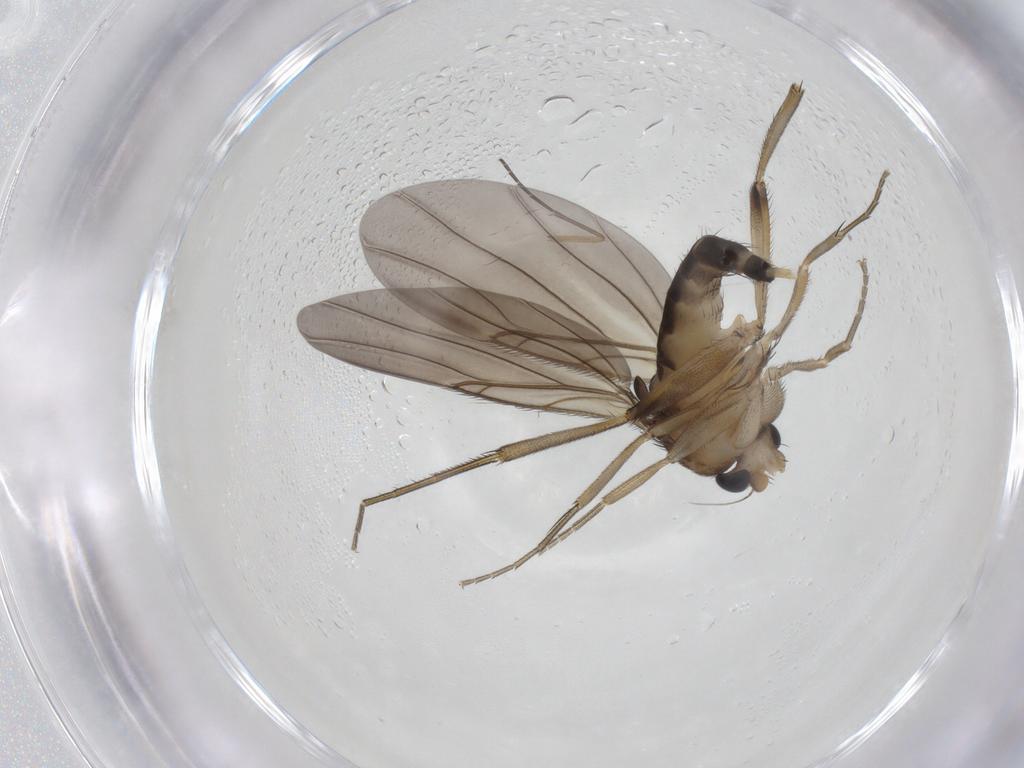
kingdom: Animalia
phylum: Arthropoda
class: Insecta
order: Diptera
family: Phoridae
